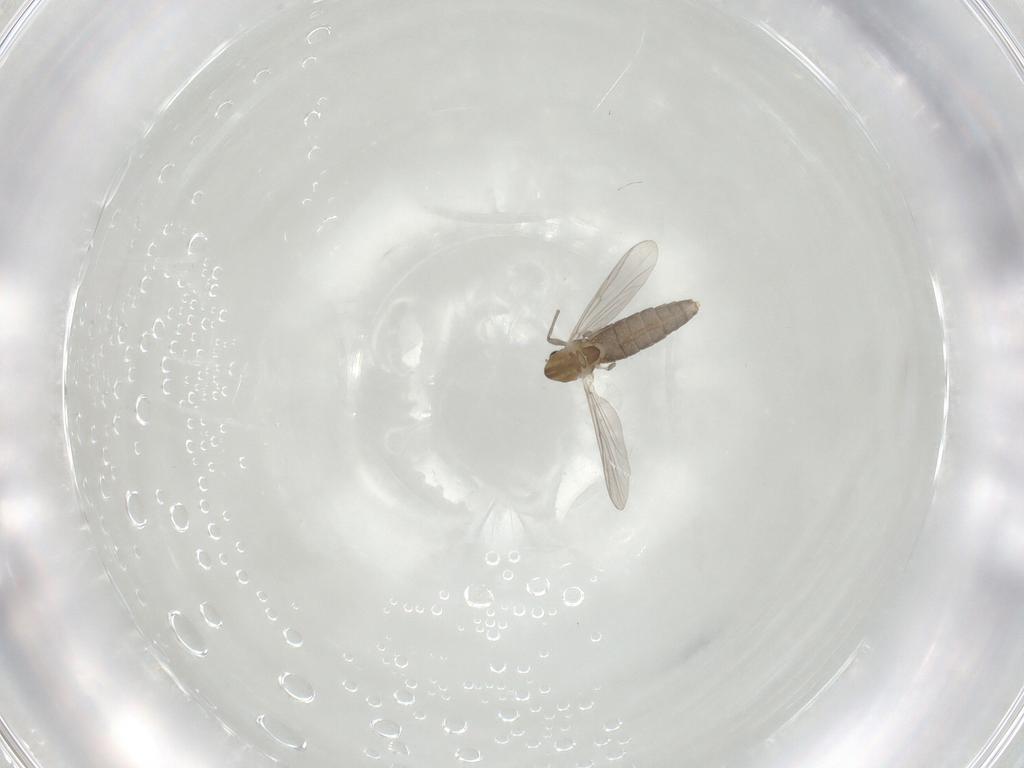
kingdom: Animalia
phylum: Arthropoda
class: Insecta
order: Diptera
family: Chironomidae
